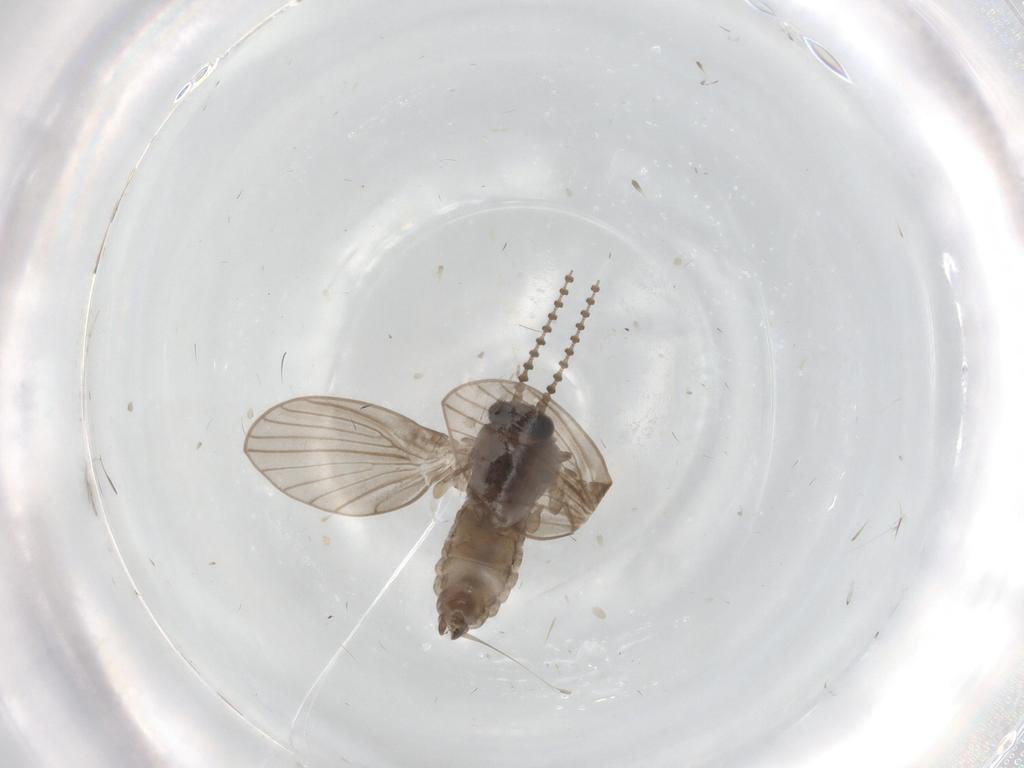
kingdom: Animalia
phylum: Arthropoda
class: Insecta
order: Diptera
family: Psychodidae
